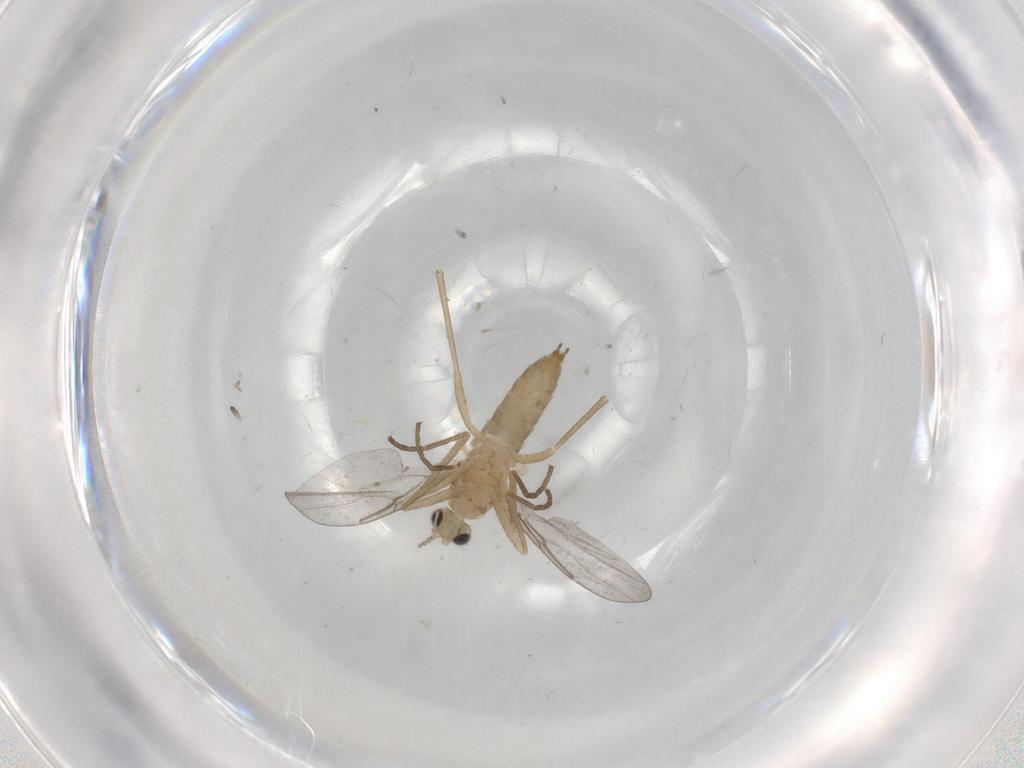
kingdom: Animalia
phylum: Arthropoda
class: Insecta
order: Diptera
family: Cecidomyiidae
